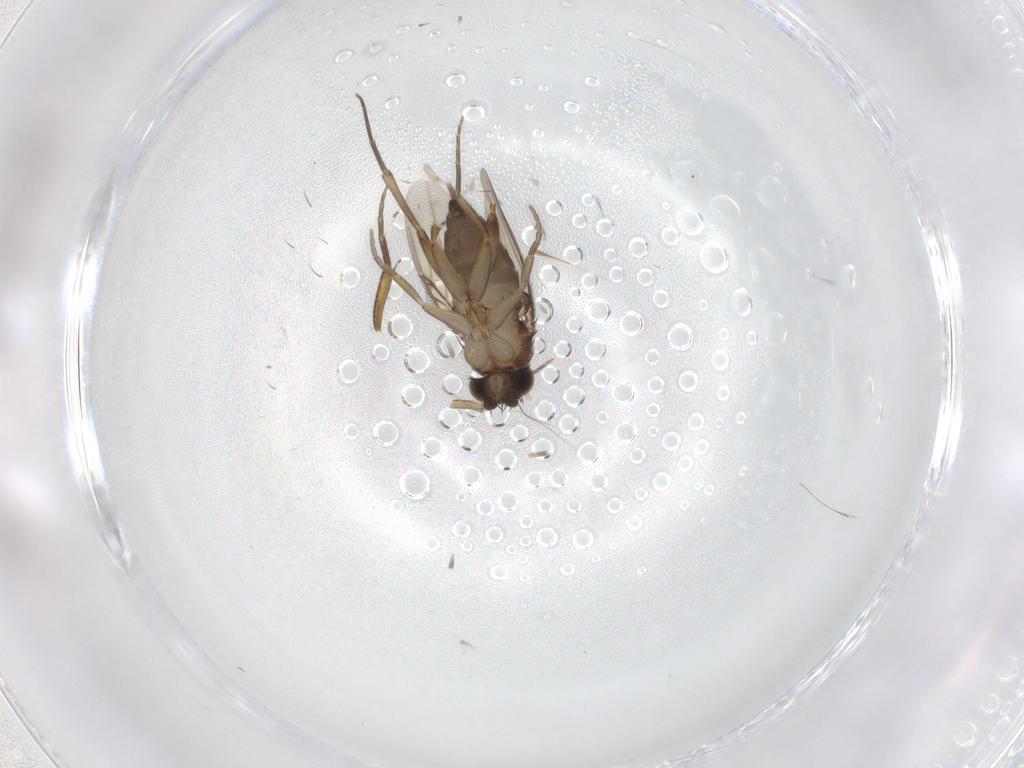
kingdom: Animalia
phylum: Arthropoda
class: Insecta
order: Diptera
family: Phoridae
